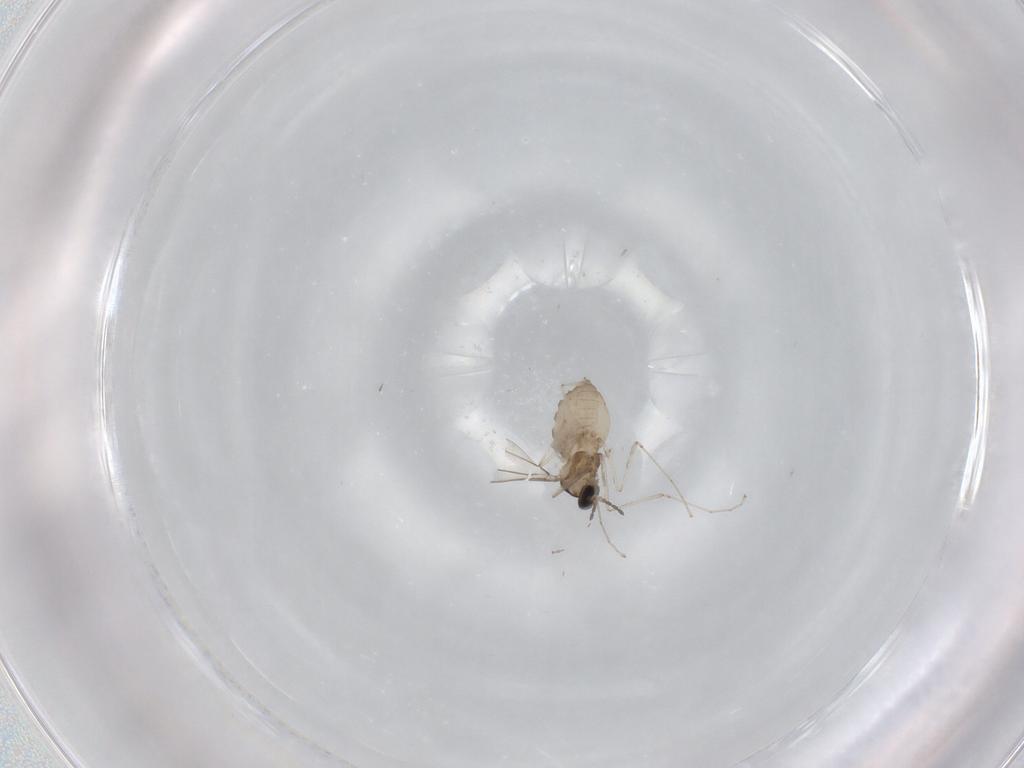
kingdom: Animalia
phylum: Arthropoda
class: Insecta
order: Diptera
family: Cecidomyiidae
